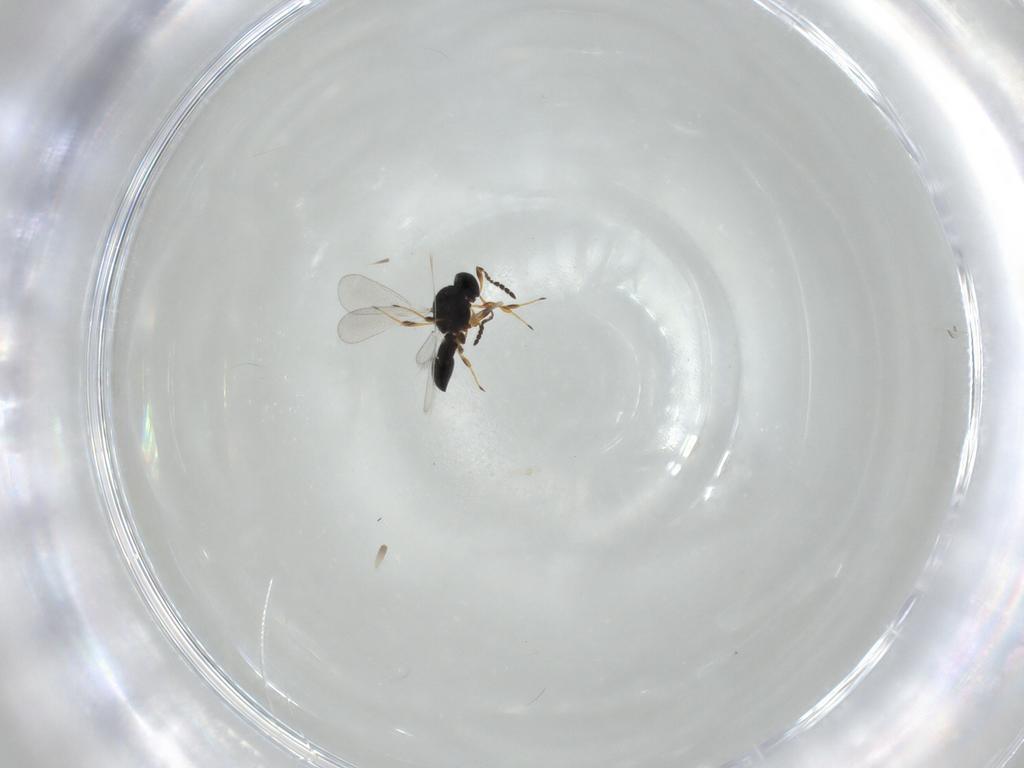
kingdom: Animalia
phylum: Arthropoda
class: Insecta
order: Hymenoptera
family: Platygastridae
